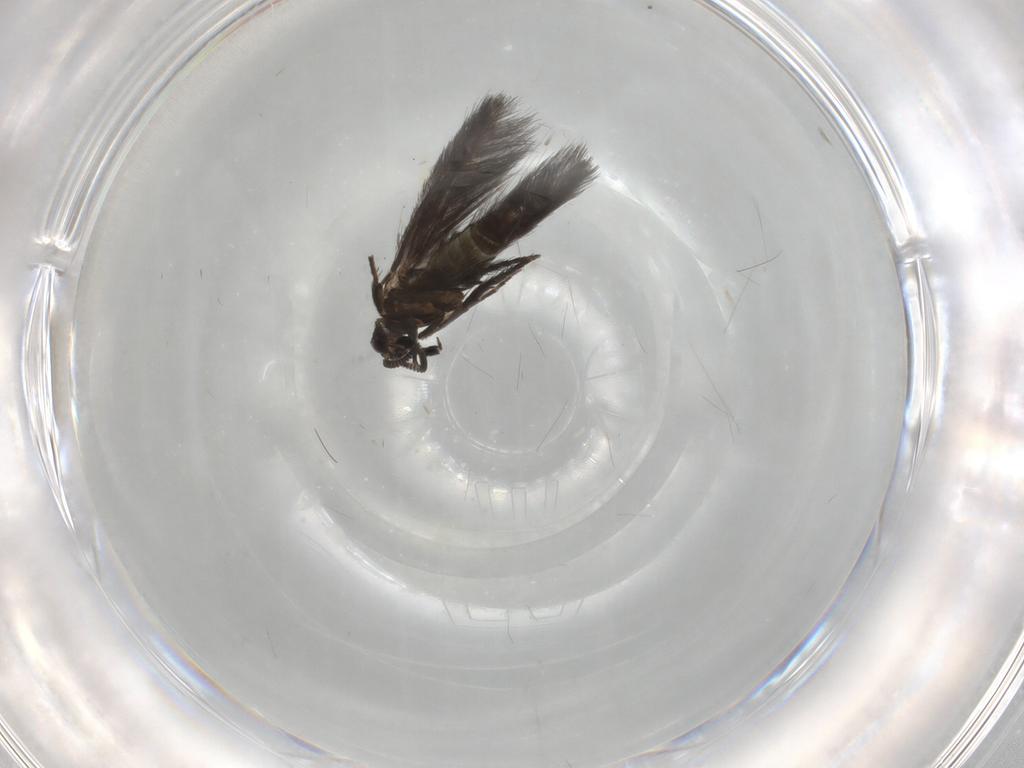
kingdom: Animalia
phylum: Arthropoda
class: Insecta
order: Trichoptera
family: Hydroptilidae
